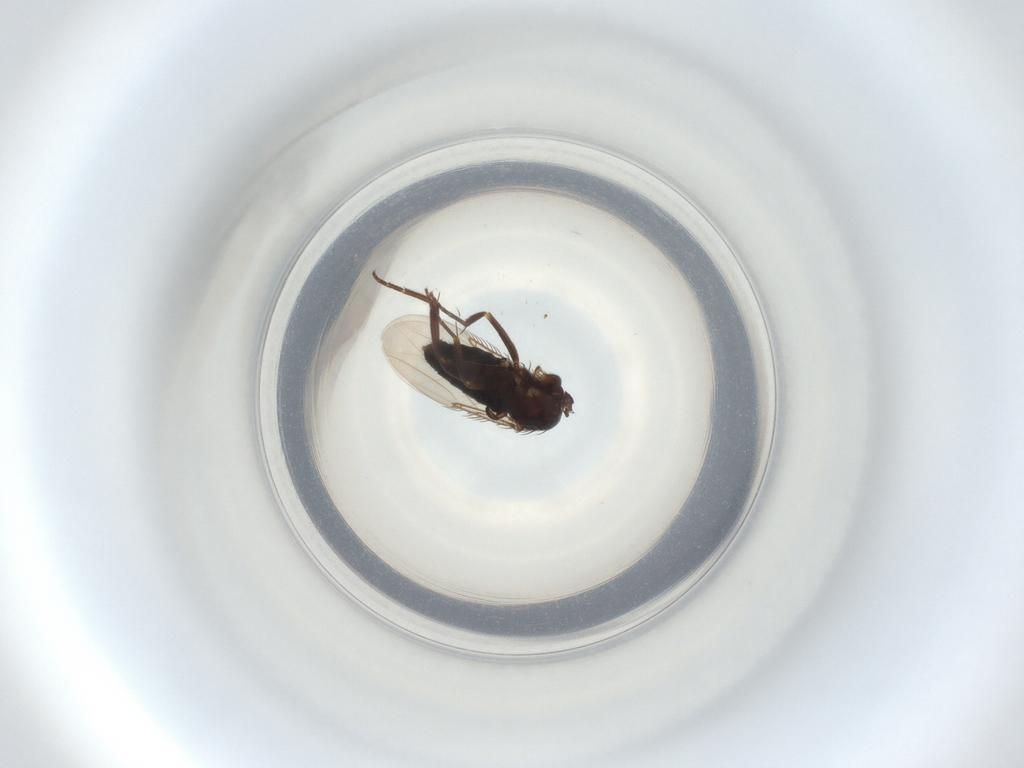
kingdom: Animalia
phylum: Arthropoda
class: Insecta
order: Diptera
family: Phoridae
